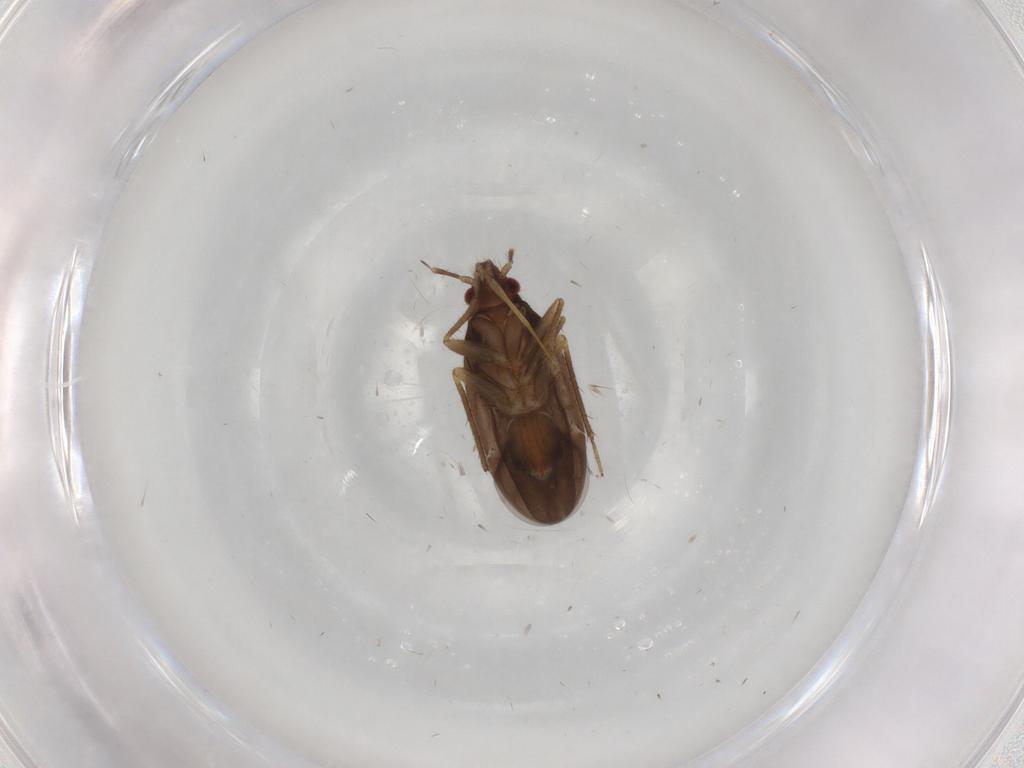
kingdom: Animalia
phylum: Arthropoda
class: Insecta
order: Hemiptera
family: Ceratocombidae
